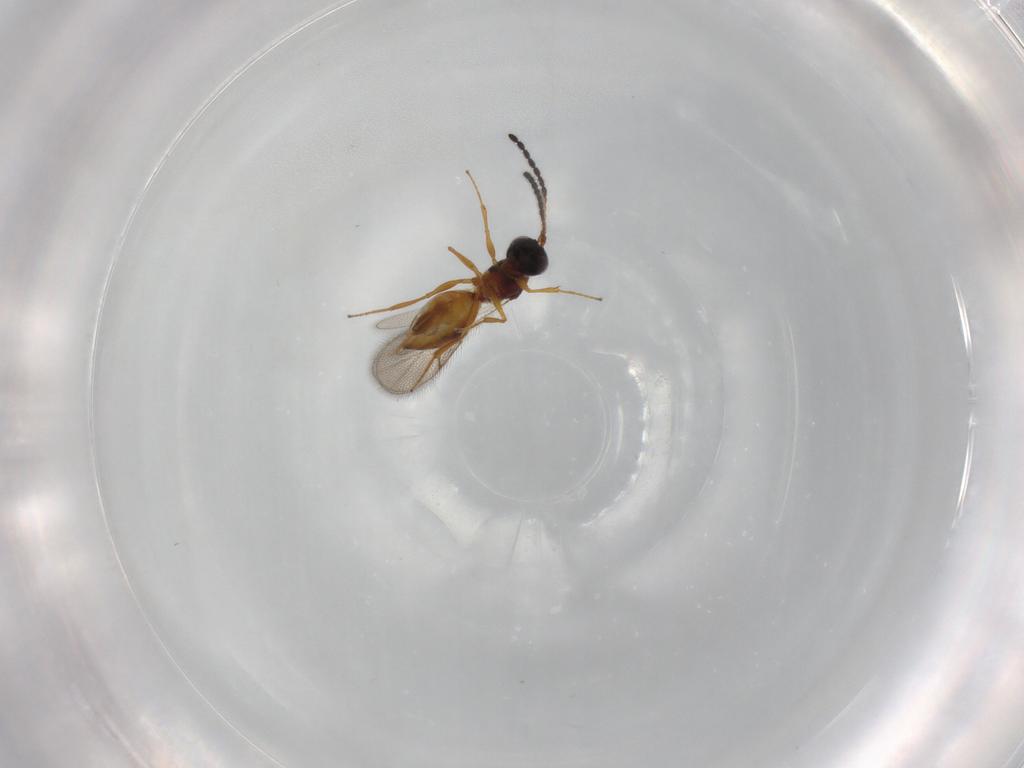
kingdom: Animalia
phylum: Arthropoda
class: Insecta
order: Hymenoptera
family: Figitidae
